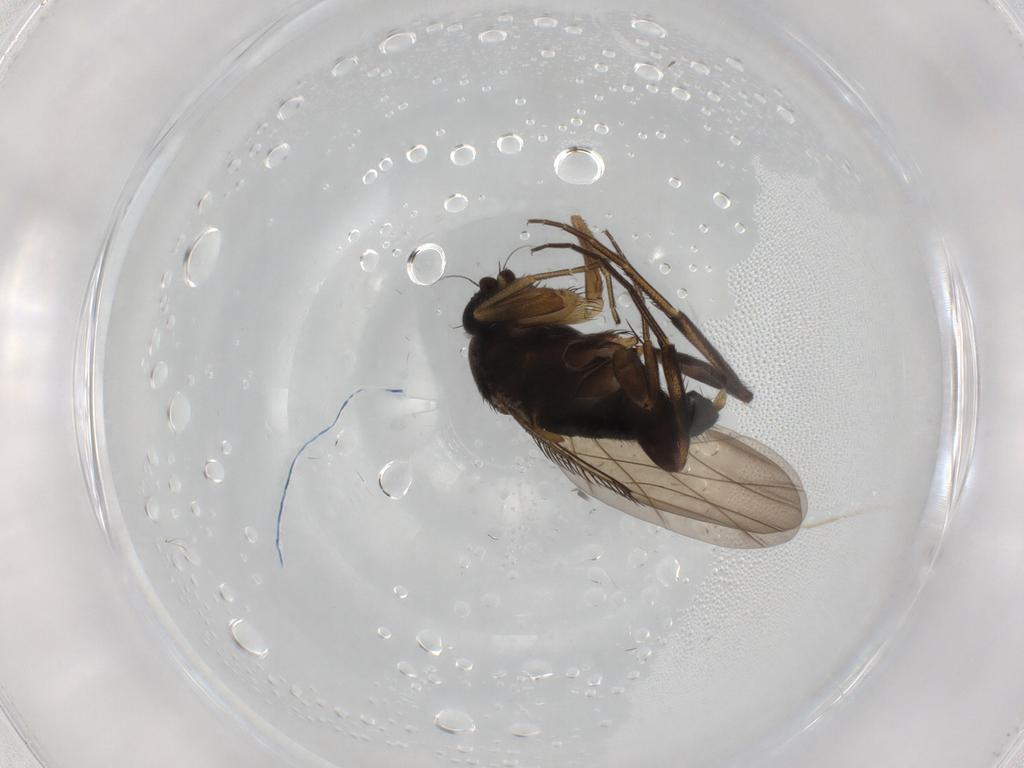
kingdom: Animalia
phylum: Arthropoda
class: Insecta
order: Diptera
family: Phoridae
